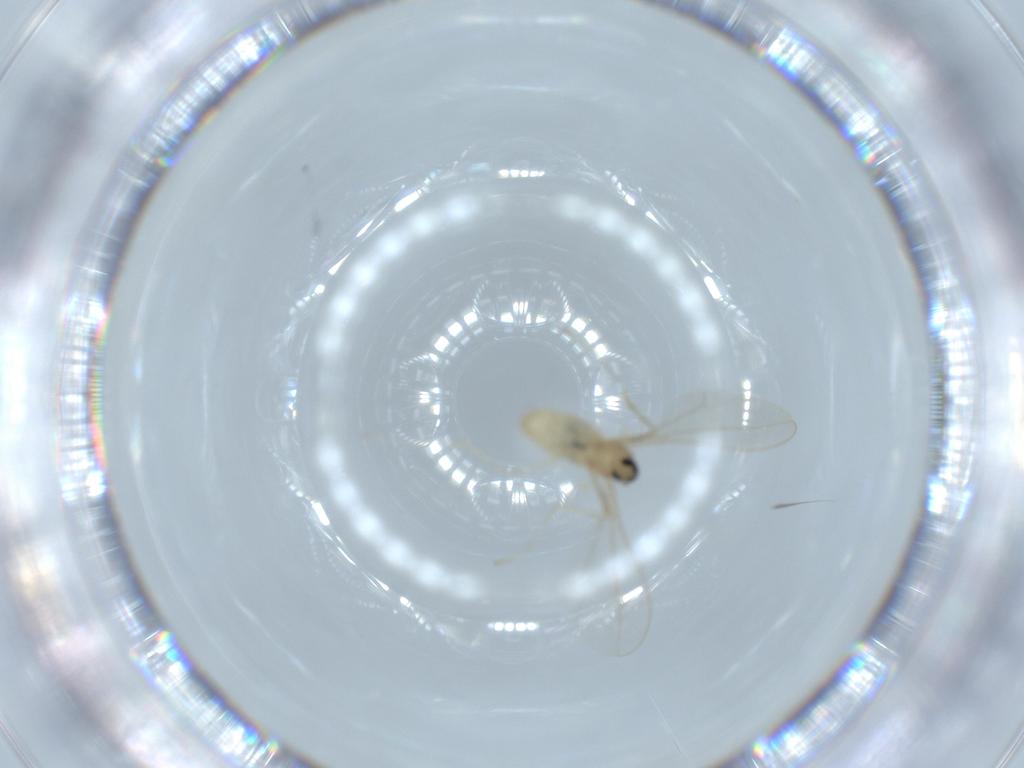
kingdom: Animalia
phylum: Arthropoda
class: Insecta
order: Diptera
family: Cecidomyiidae
